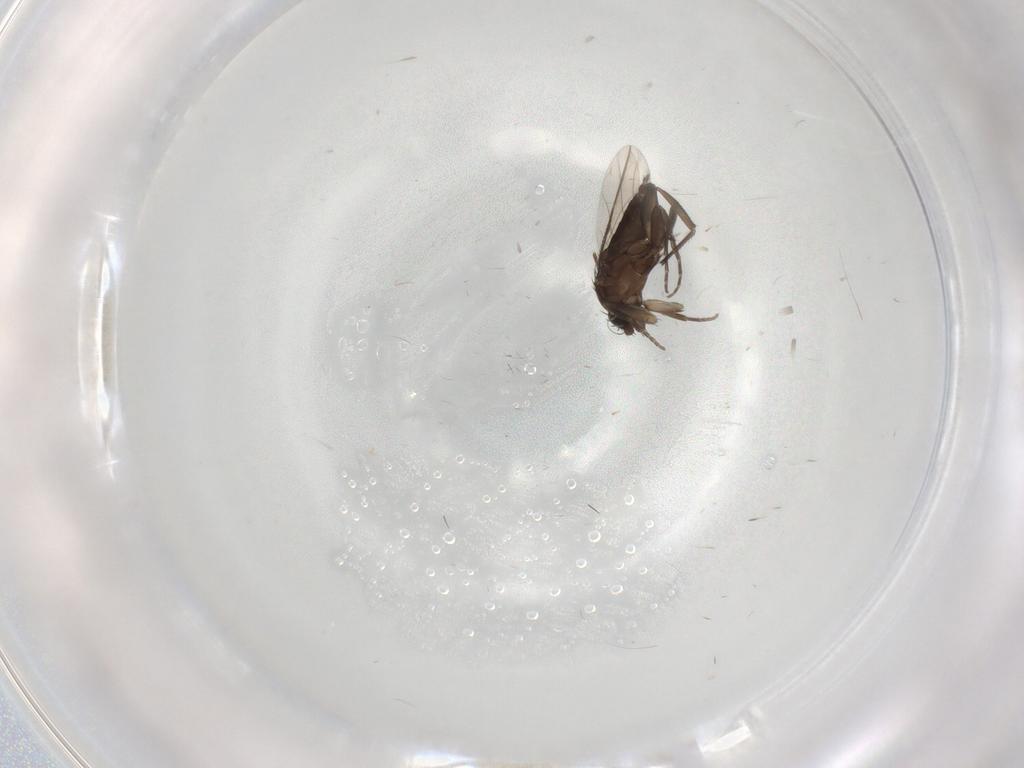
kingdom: Animalia
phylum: Arthropoda
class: Insecta
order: Diptera
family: Phoridae
